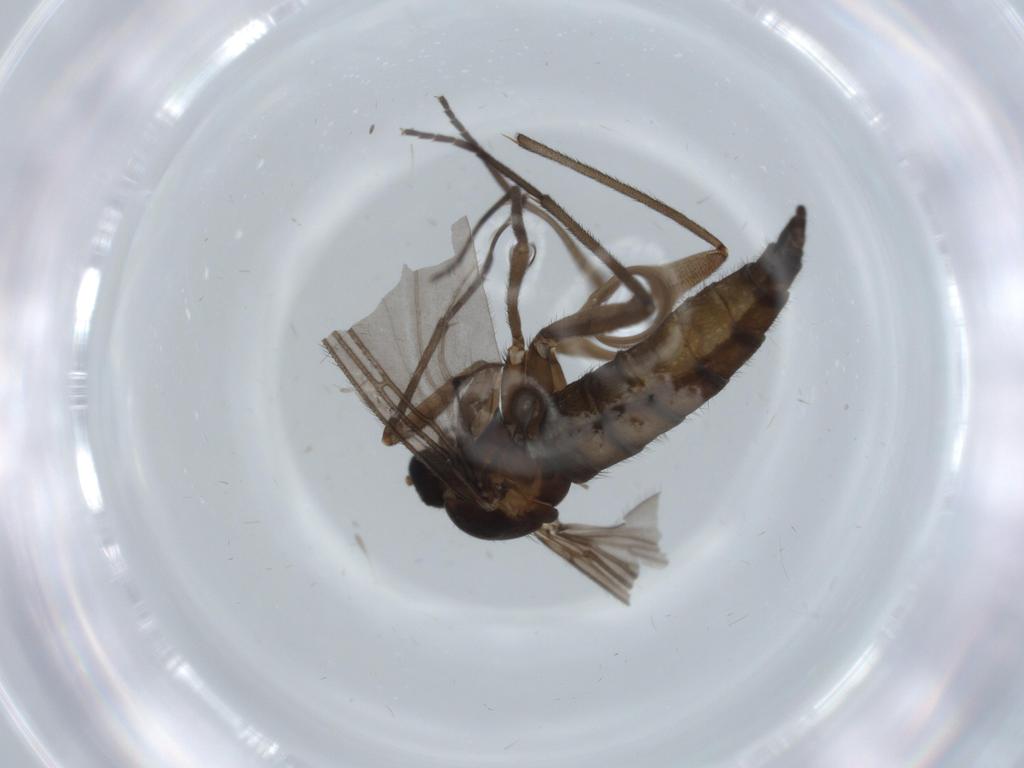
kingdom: Animalia
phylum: Arthropoda
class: Insecta
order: Diptera
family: Sciaridae
